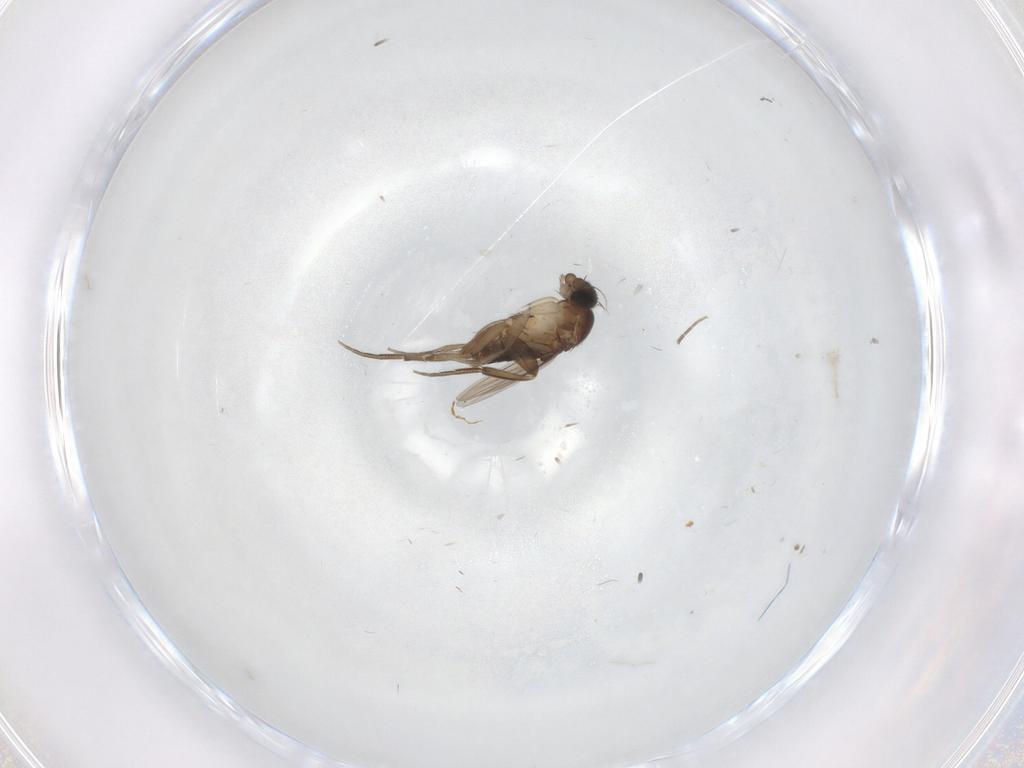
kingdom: Animalia
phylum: Arthropoda
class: Insecta
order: Diptera
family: Phoridae
